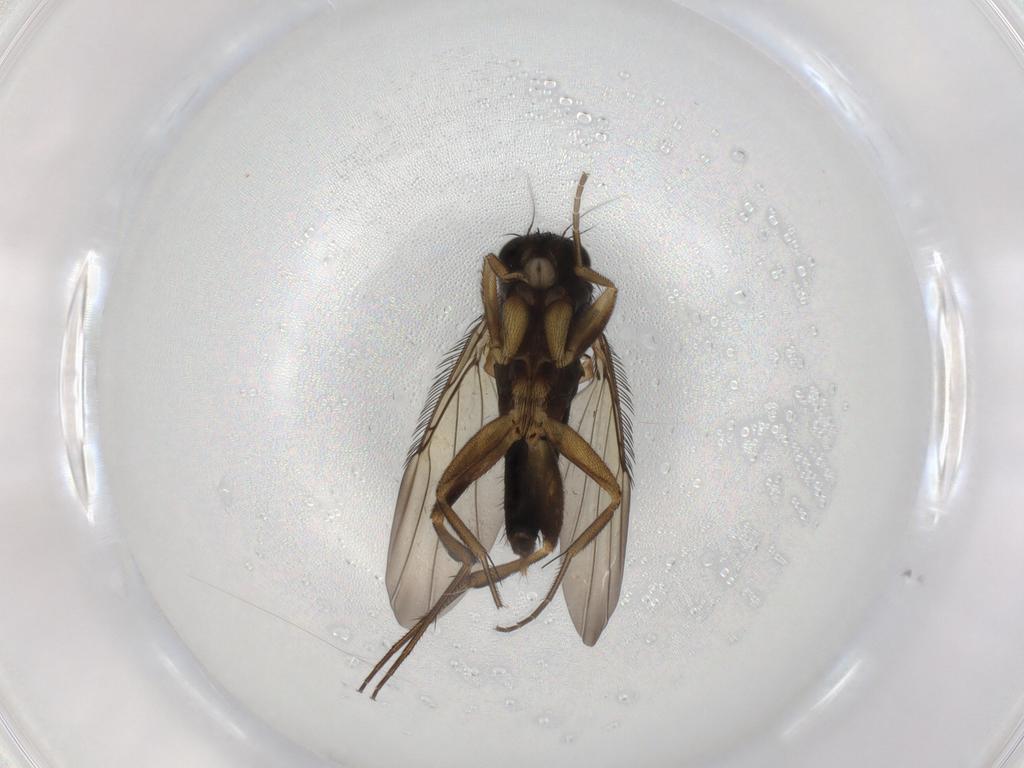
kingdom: Animalia
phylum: Arthropoda
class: Insecta
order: Diptera
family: Phoridae
